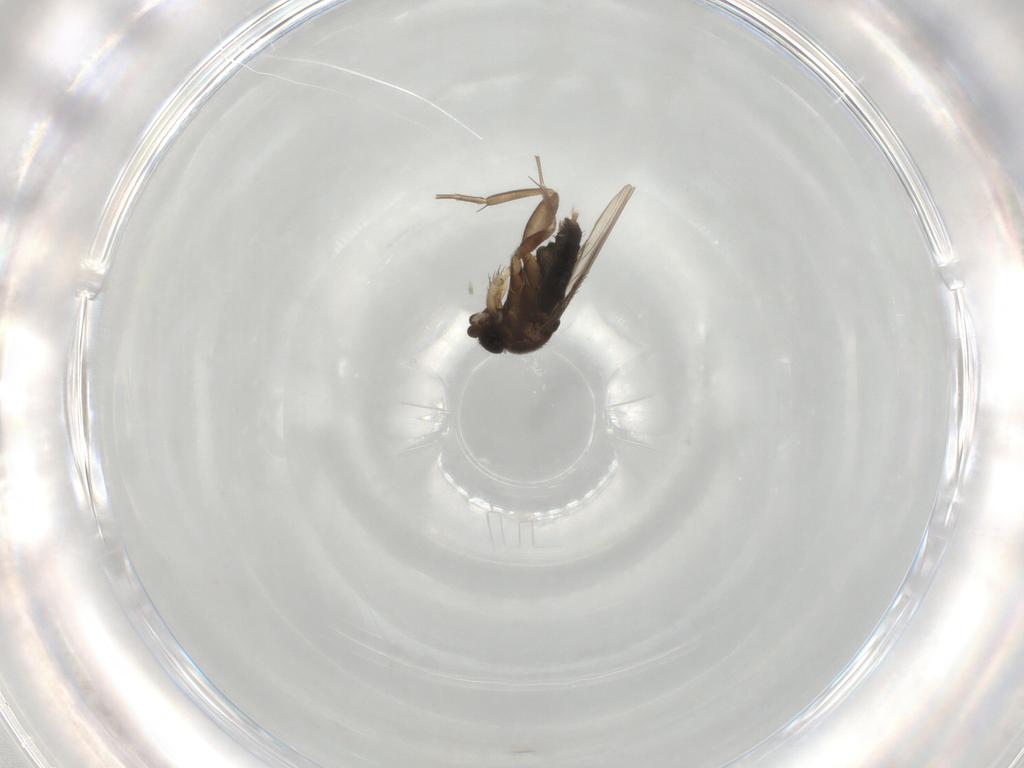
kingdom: Animalia
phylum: Arthropoda
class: Insecta
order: Diptera
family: Phoridae
